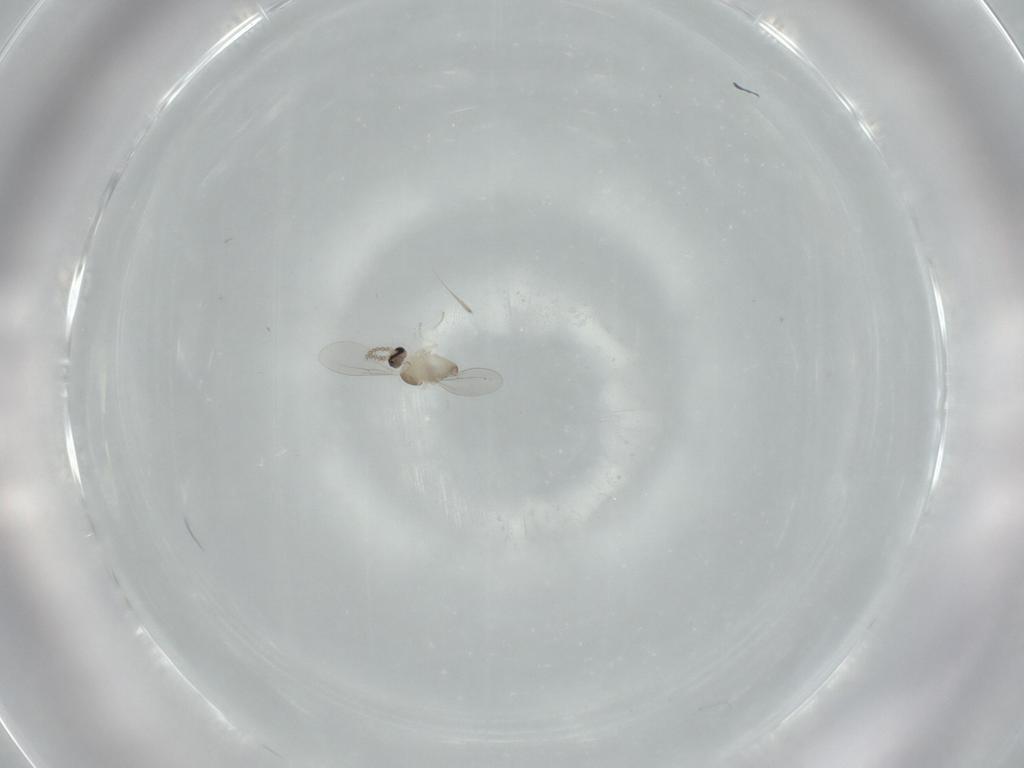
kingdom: Animalia
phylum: Arthropoda
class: Insecta
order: Diptera
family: Cecidomyiidae
